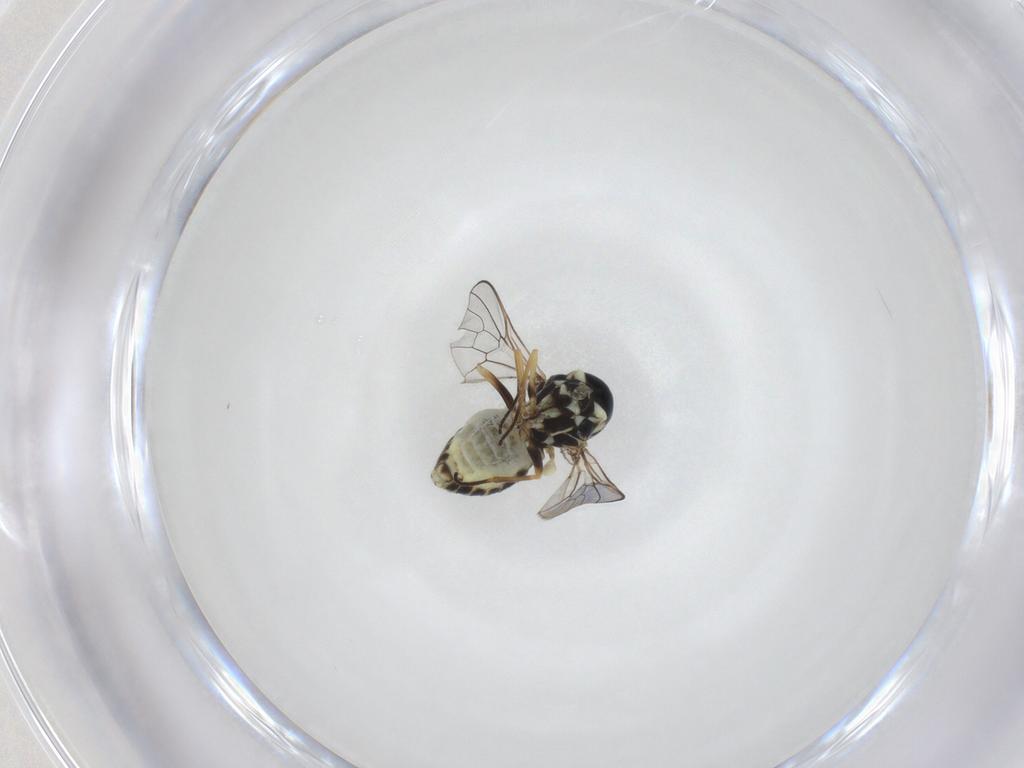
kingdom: Animalia
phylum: Arthropoda
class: Insecta
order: Diptera
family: Bombyliidae
